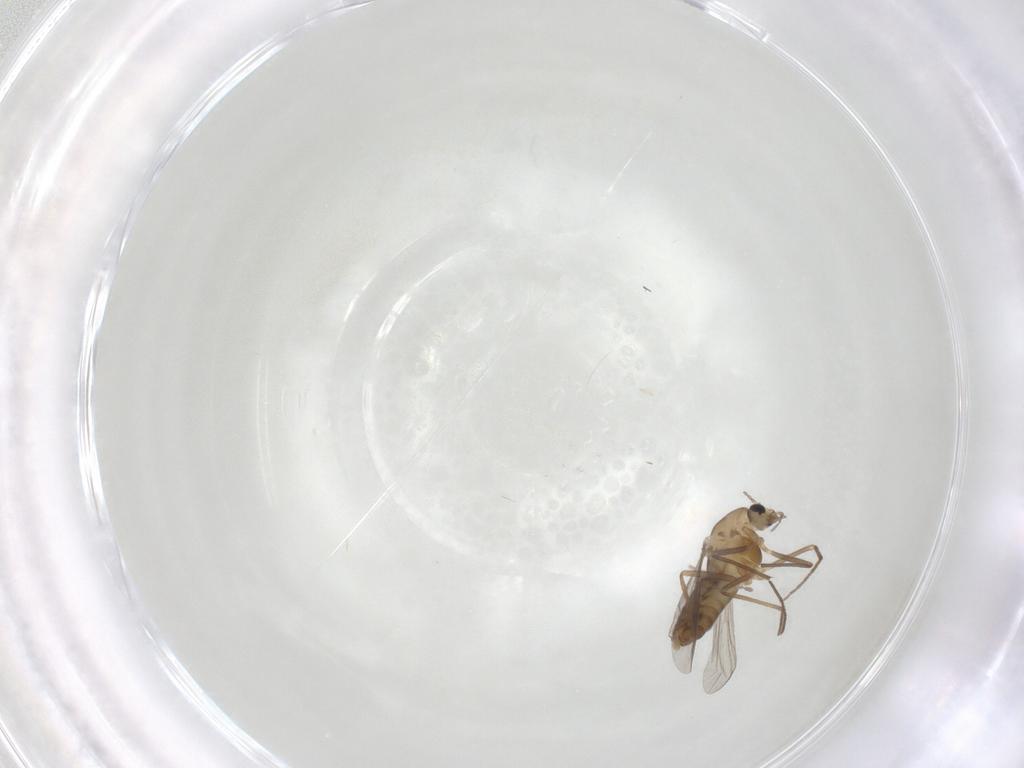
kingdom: Animalia
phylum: Arthropoda
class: Insecta
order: Diptera
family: Cecidomyiidae
